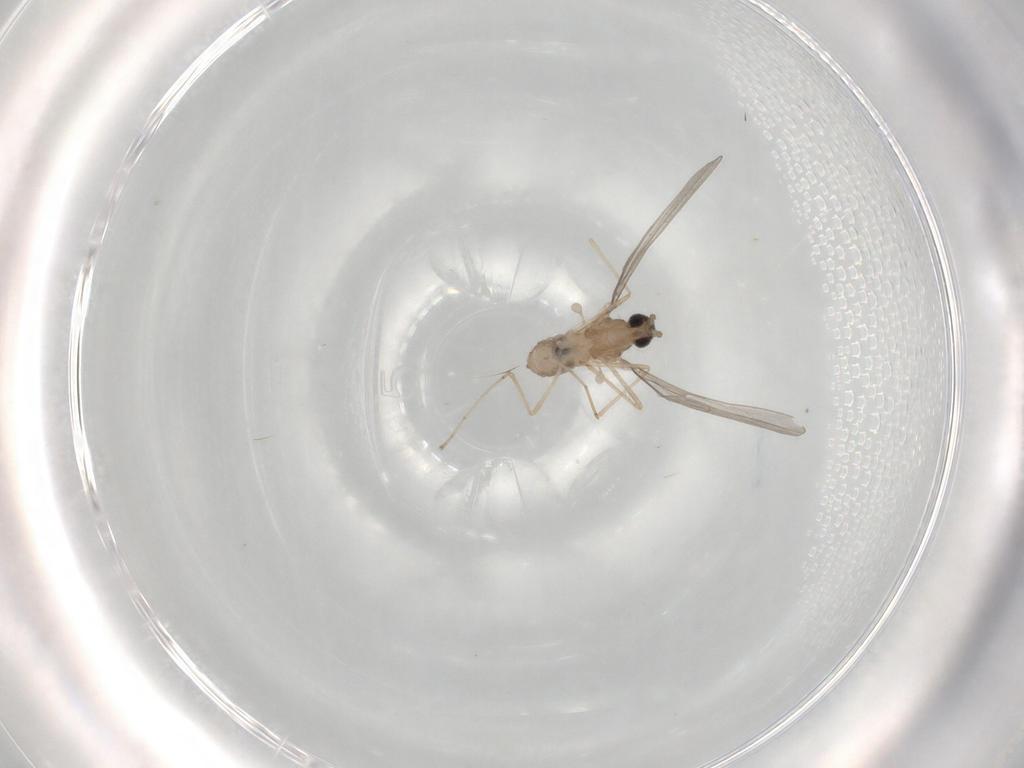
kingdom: Animalia
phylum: Arthropoda
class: Insecta
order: Diptera
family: Cecidomyiidae
